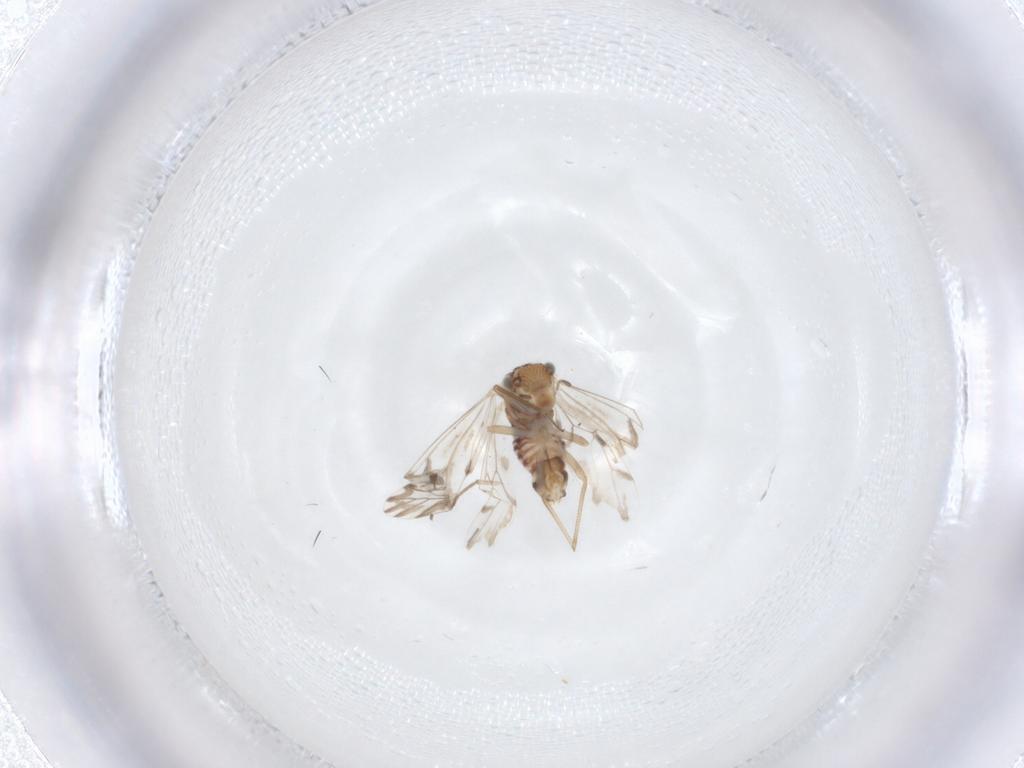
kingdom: Animalia
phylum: Arthropoda
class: Insecta
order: Psocodea
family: Lachesillidae
